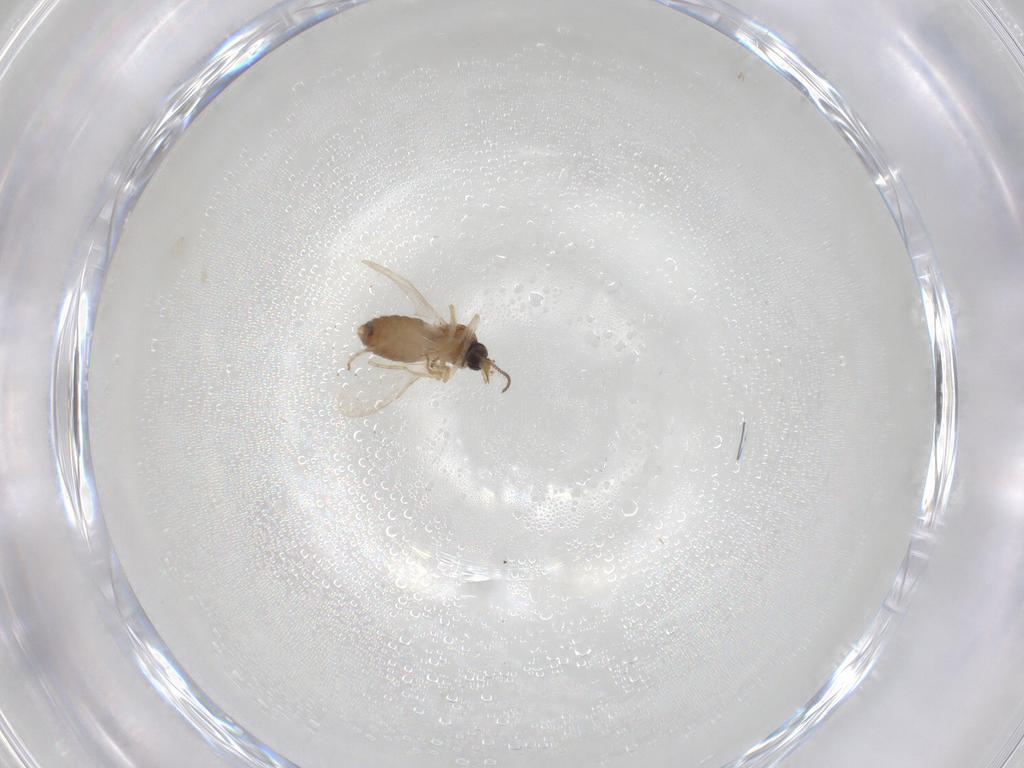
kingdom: Animalia
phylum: Arthropoda
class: Insecta
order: Diptera
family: Ceratopogonidae
